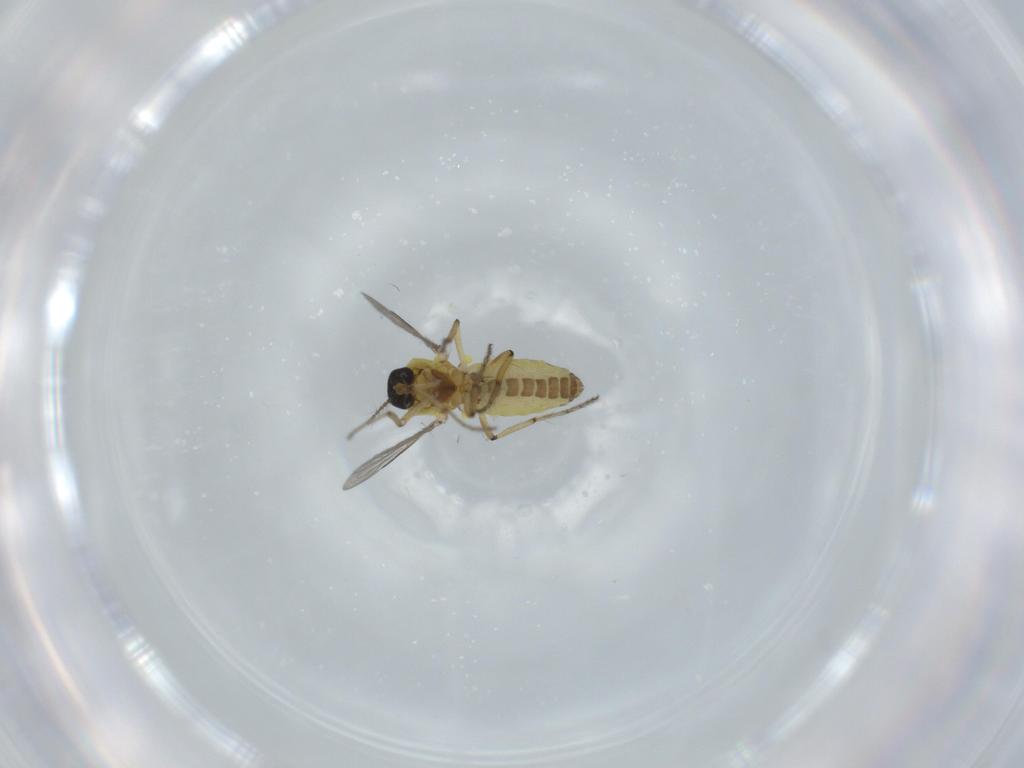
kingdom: Animalia
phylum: Arthropoda
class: Insecta
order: Diptera
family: Ceratopogonidae
